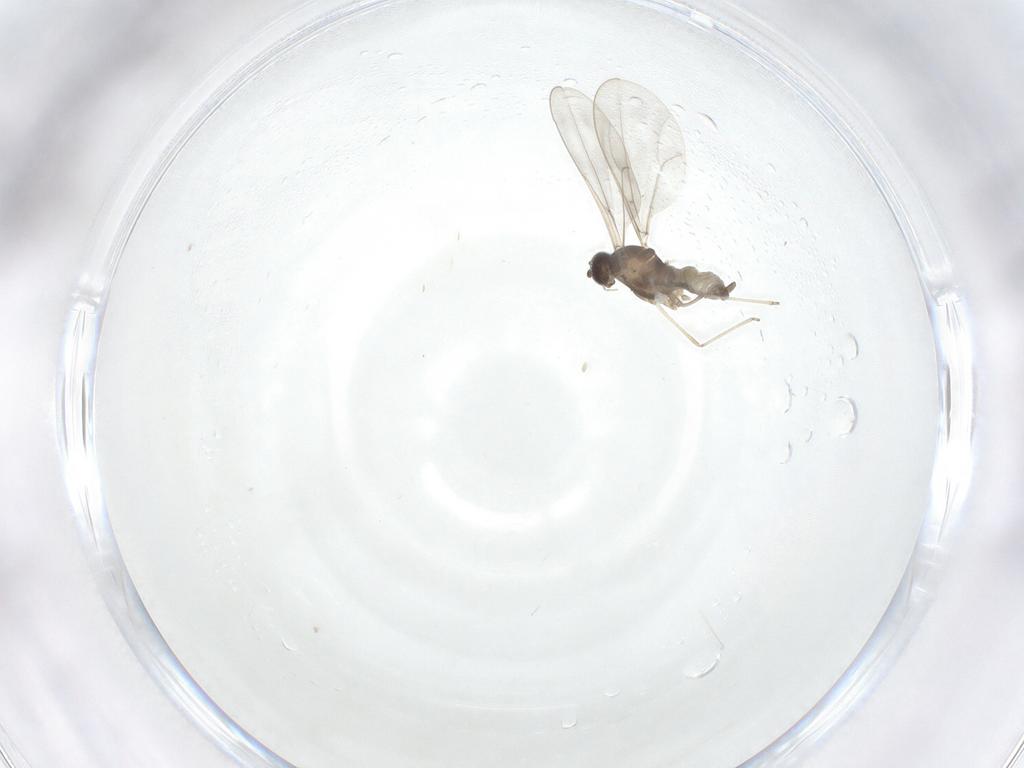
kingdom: Animalia
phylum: Arthropoda
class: Insecta
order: Diptera
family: Cecidomyiidae
